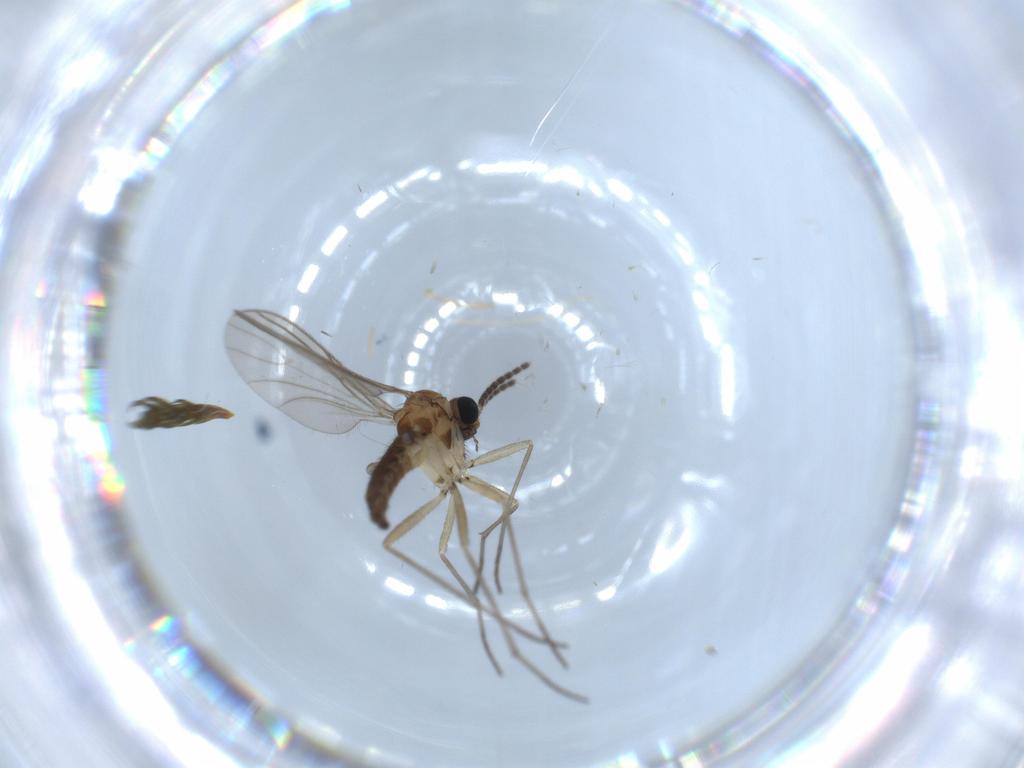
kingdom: Animalia
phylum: Arthropoda
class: Insecta
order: Diptera
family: Sciaridae
